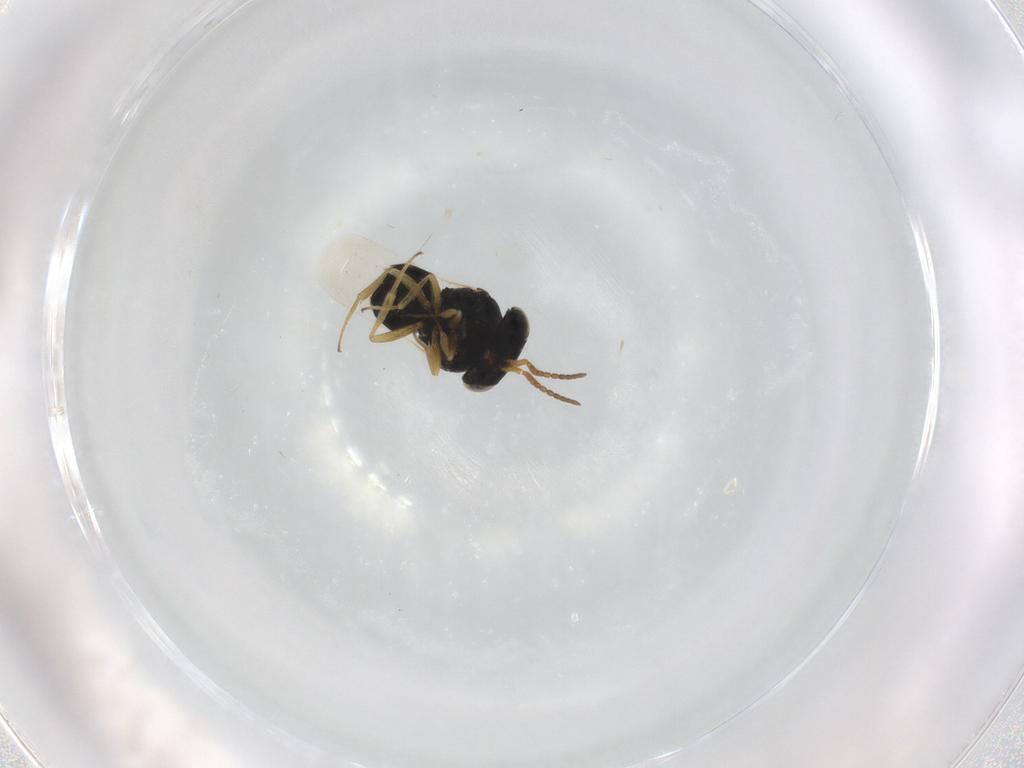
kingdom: Animalia
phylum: Arthropoda
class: Insecta
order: Hymenoptera
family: Scelionidae
